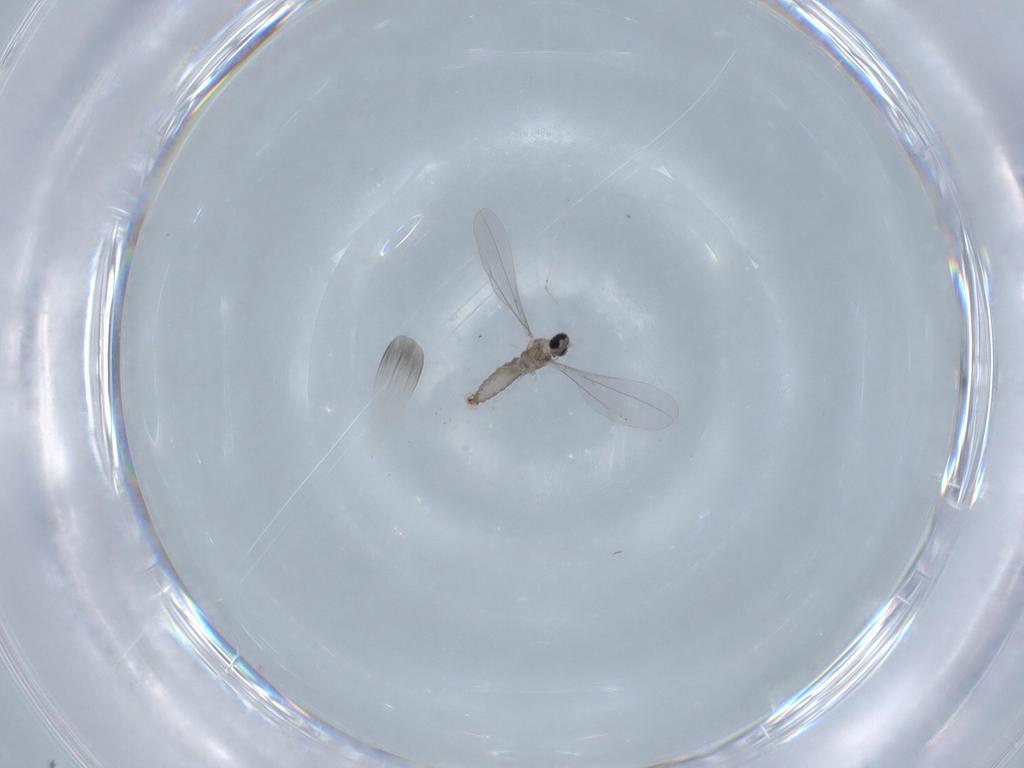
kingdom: Animalia
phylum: Arthropoda
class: Insecta
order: Diptera
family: Cecidomyiidae
